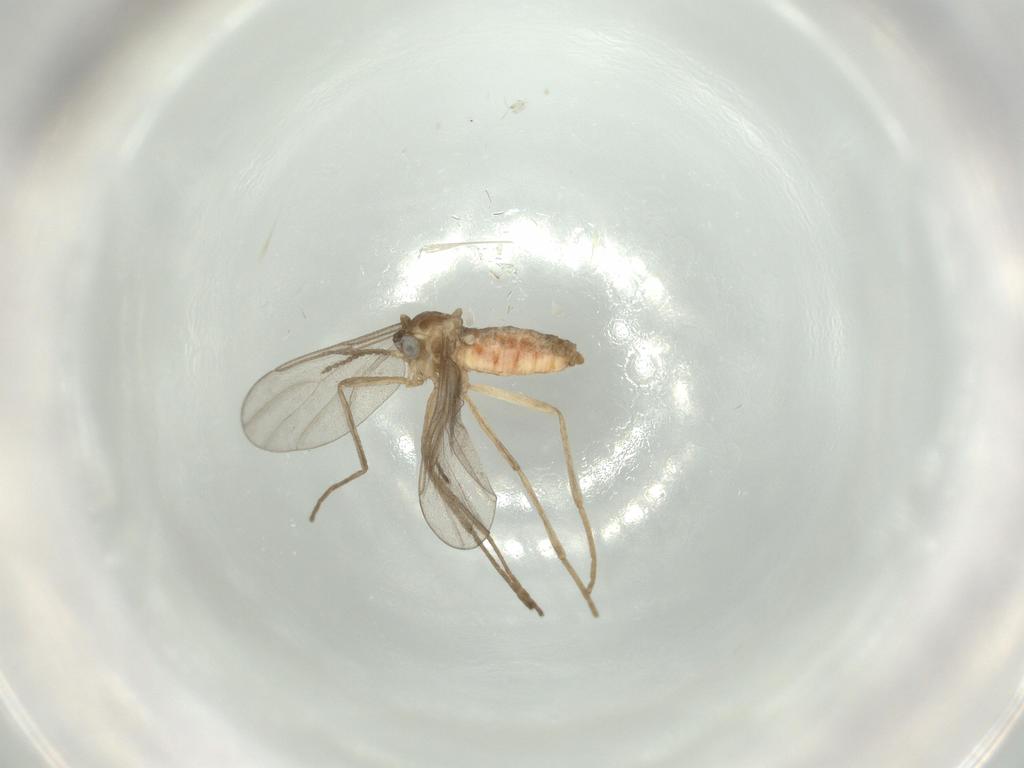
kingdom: Animalia
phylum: Arthropoda
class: Insecta
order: Diptera
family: Cecidomyiidae
